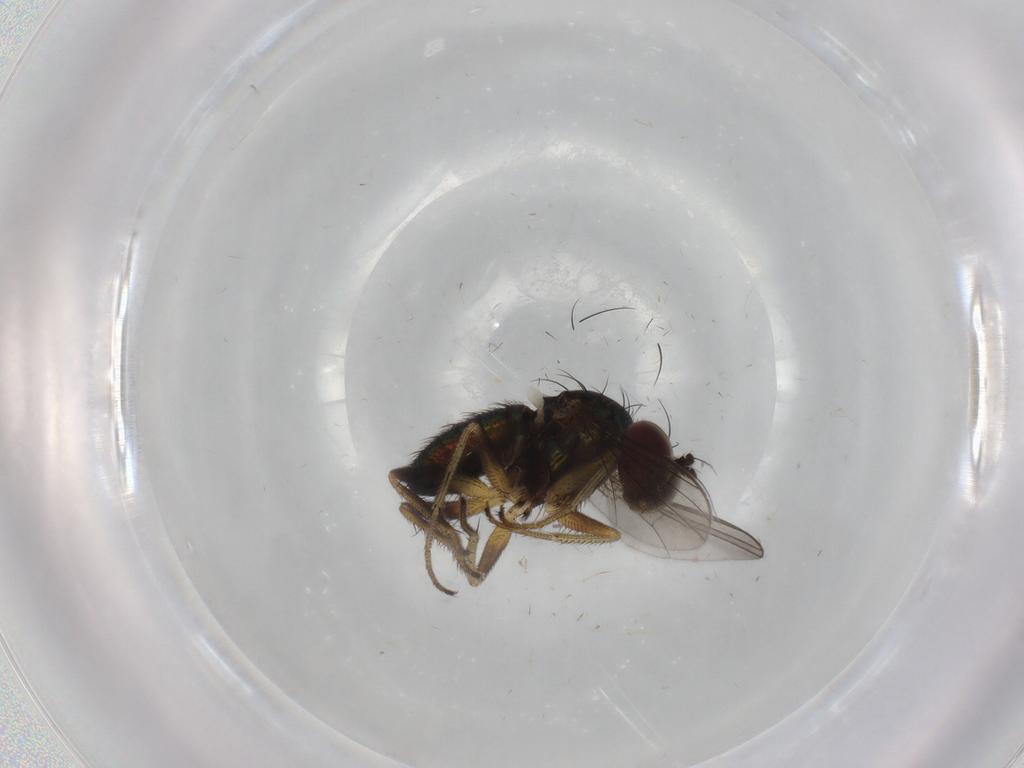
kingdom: Animalia
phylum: Arthropoda
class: Insecta
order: Diptera
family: Dolichopodidae
